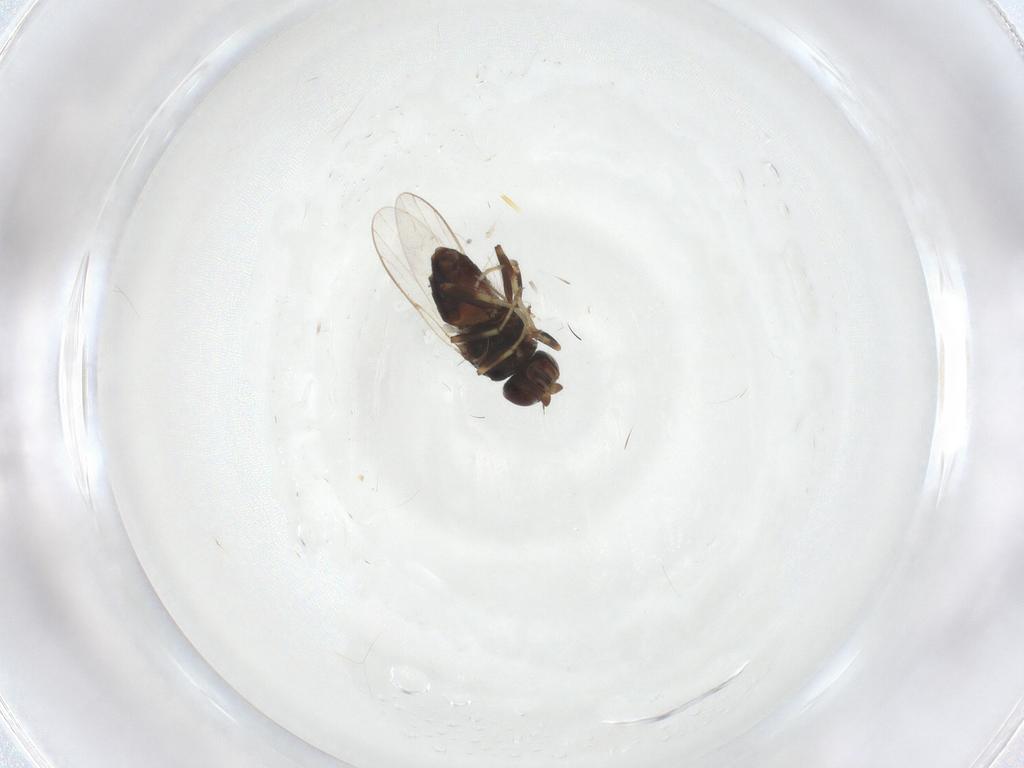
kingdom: Animalia
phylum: Arthropoda
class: Insecta
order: Diptera
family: Chloropidae
